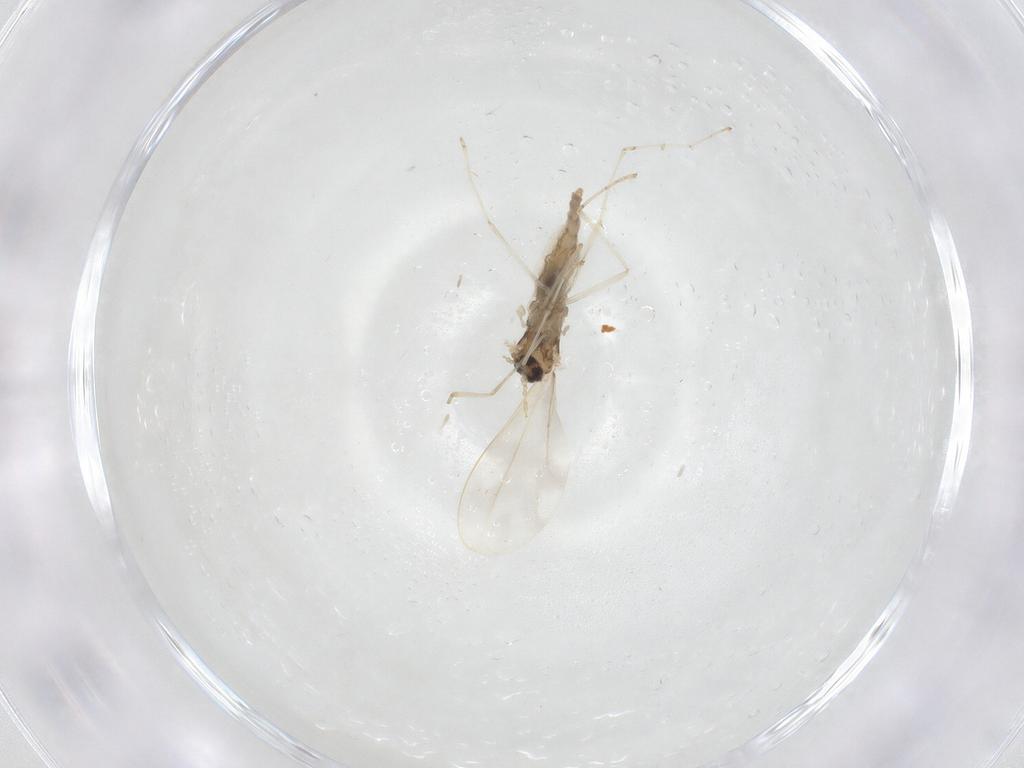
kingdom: Animalia
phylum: Arthropoda
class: Insecta
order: Diptera
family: Cecidomyiidae
